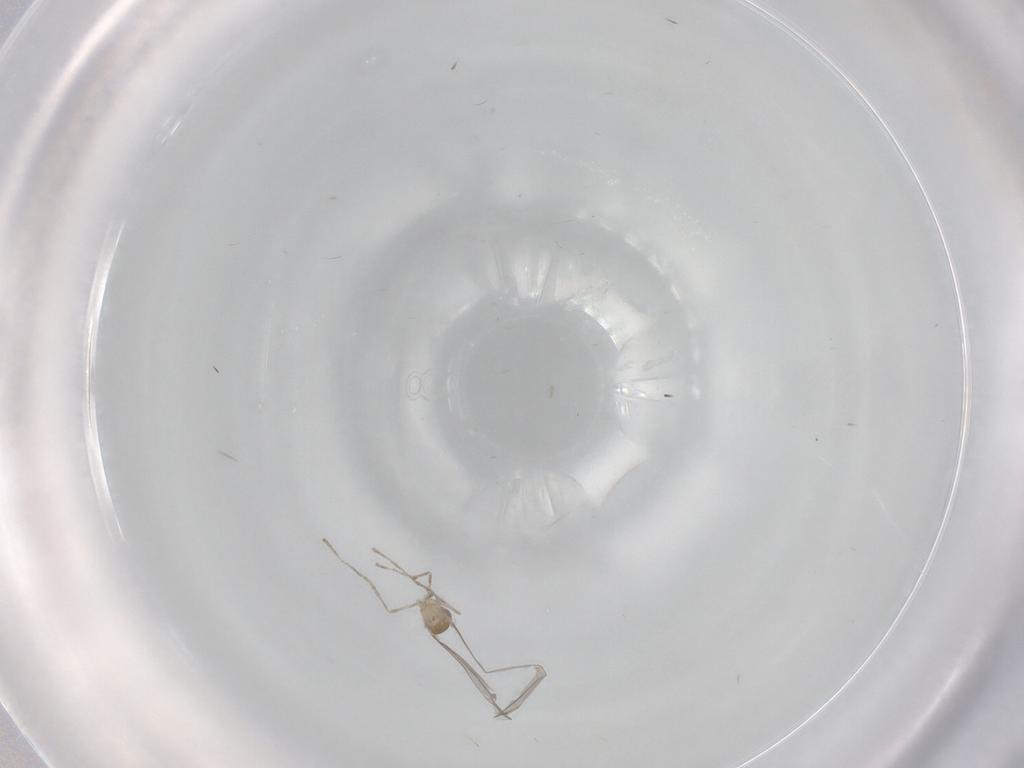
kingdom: Animalia
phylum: Arthropoda
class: Insecta
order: Diptera
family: Cecidomyiidae
